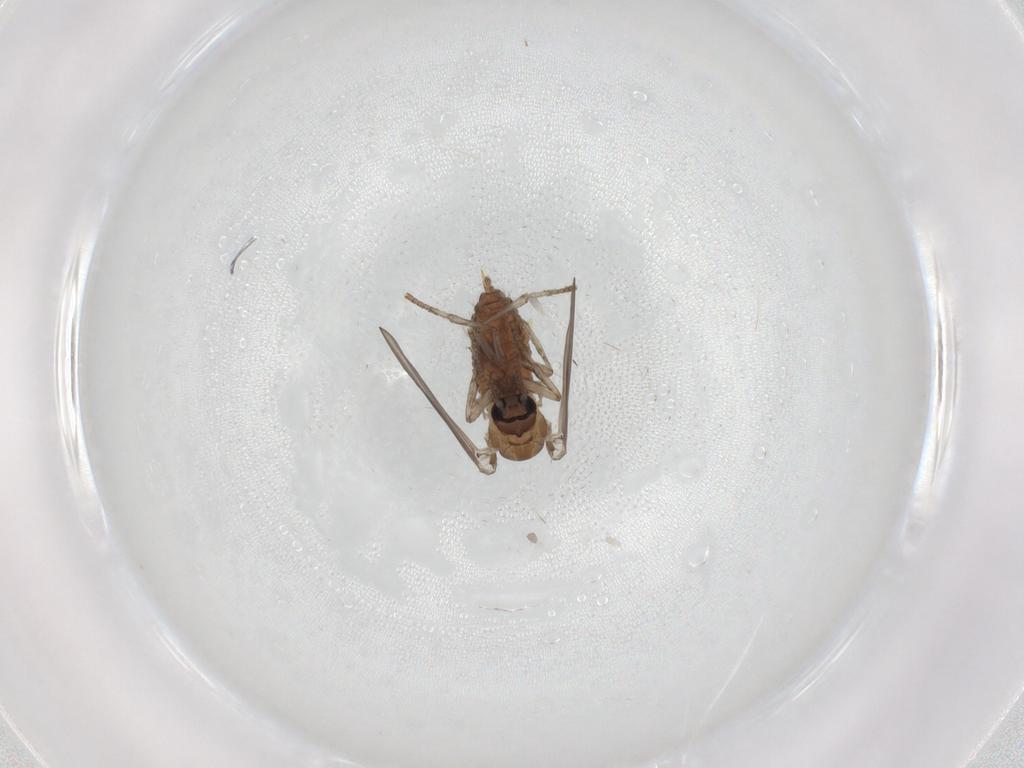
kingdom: Animalia
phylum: Arthropoda
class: Insecta
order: Diptera
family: Psychodidae
